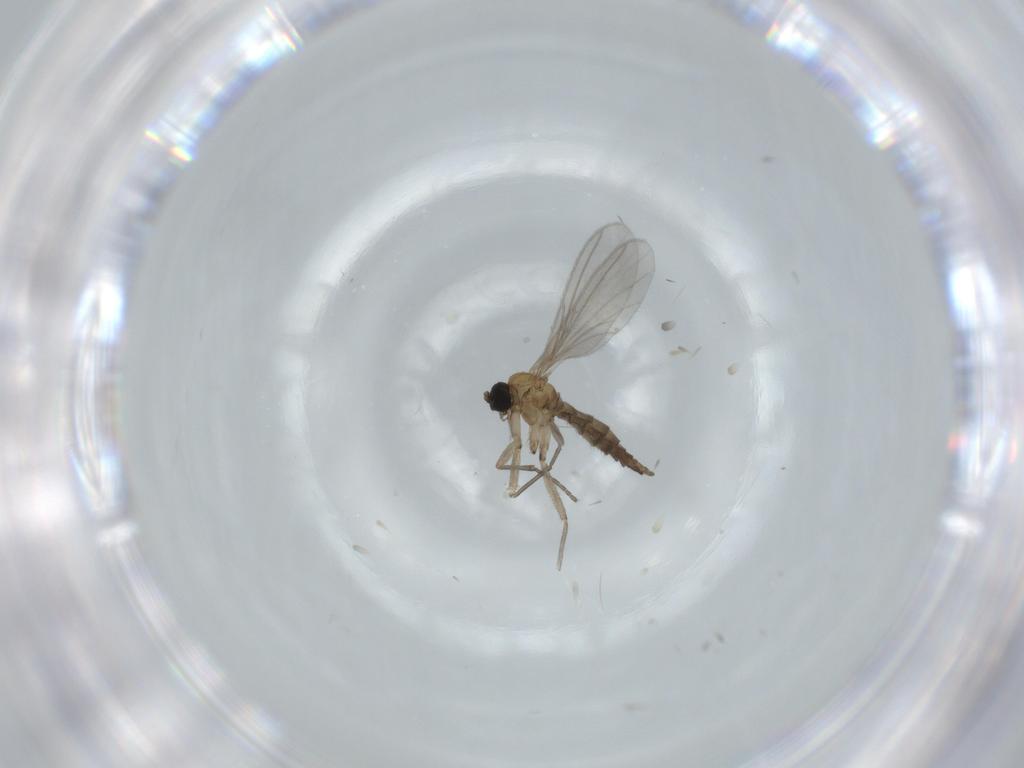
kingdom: Animalia
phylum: Arthropoda
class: Insecta
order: Diptera
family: Sciaridae
